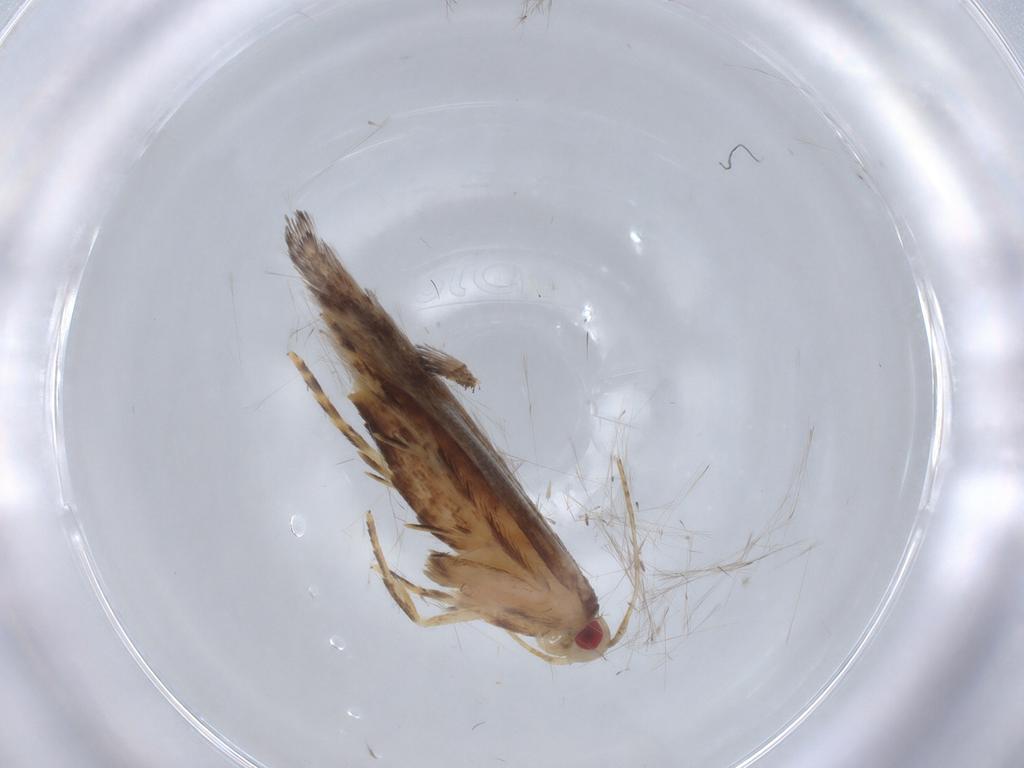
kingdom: Animalia
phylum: Arthropoda
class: Insecta
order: Lepidoptera
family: Cosmopterigidae
